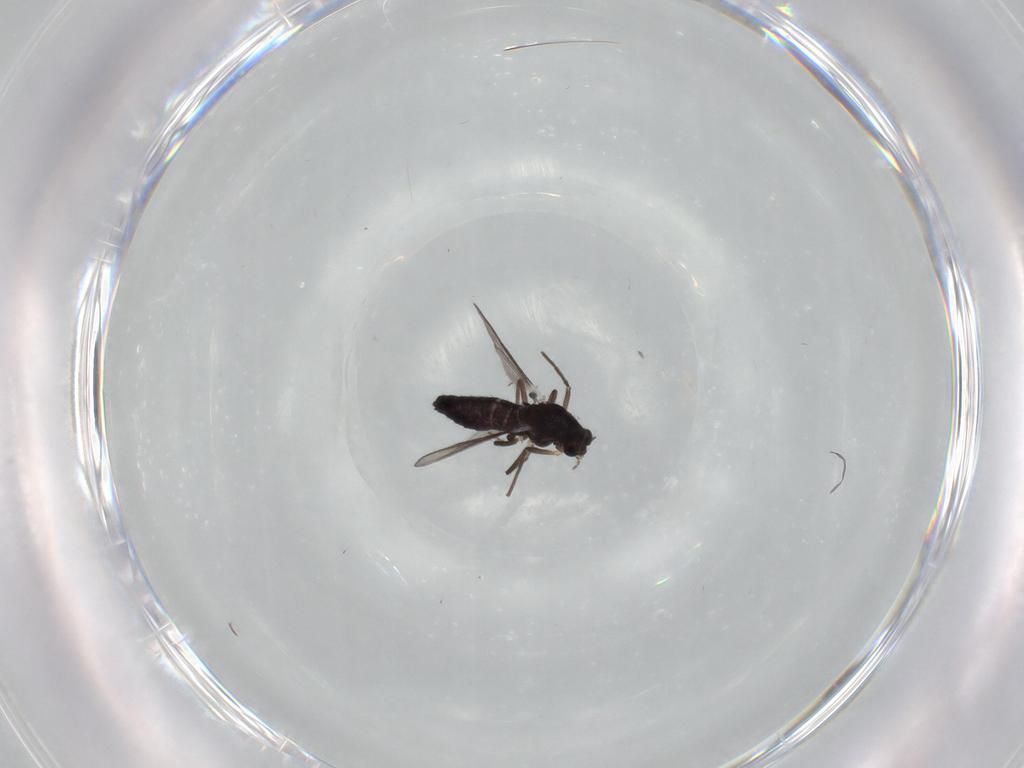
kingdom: Animalia
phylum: Arthropoda
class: Insecta
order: Diptera
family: Chironomidae
